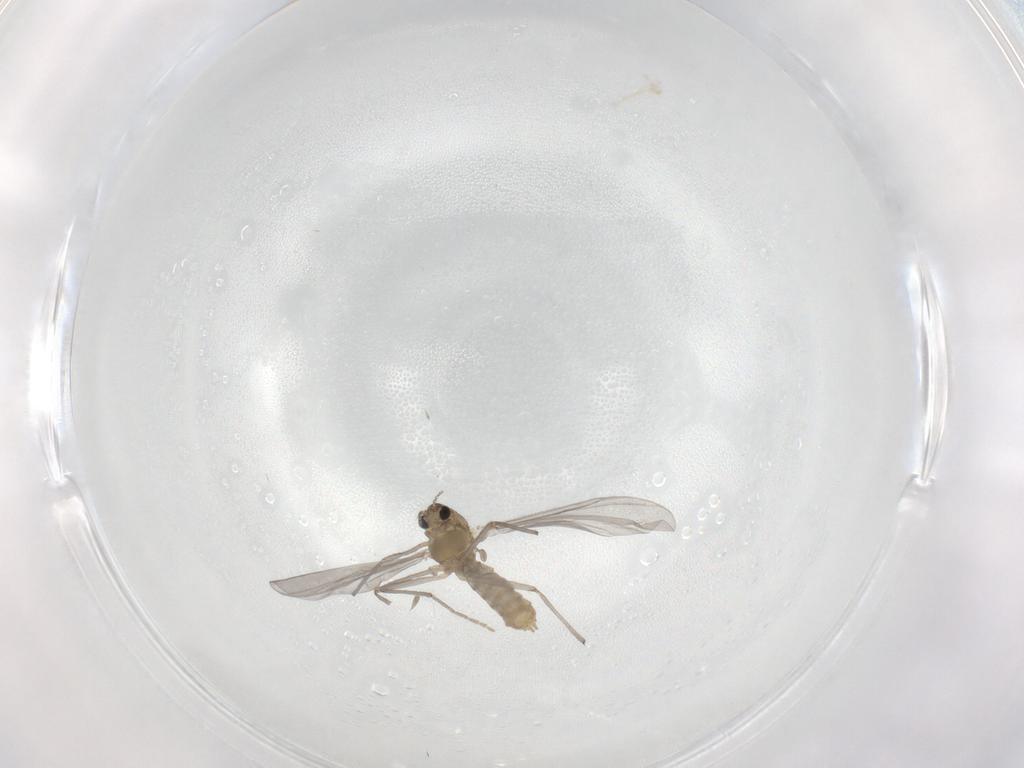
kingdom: Animalia
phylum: Arthropoda
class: Insecta
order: Diptera
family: Chironomidae
